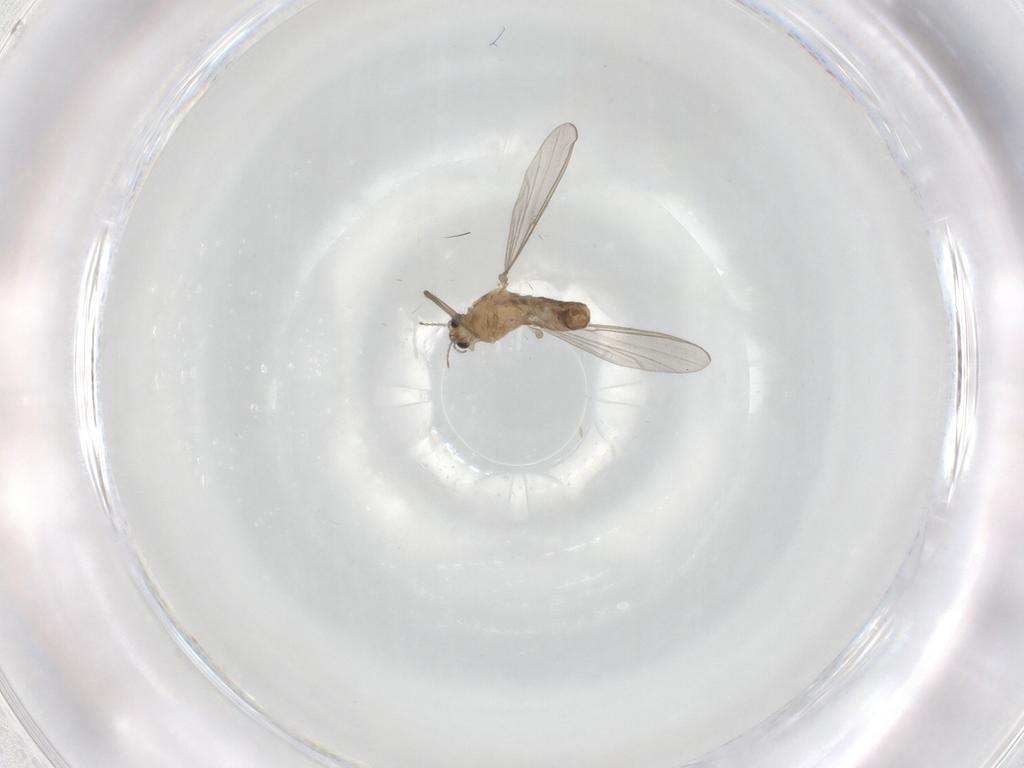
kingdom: Animalia
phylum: Arthropoda
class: Insecta
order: Diptera
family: Chironomidae
